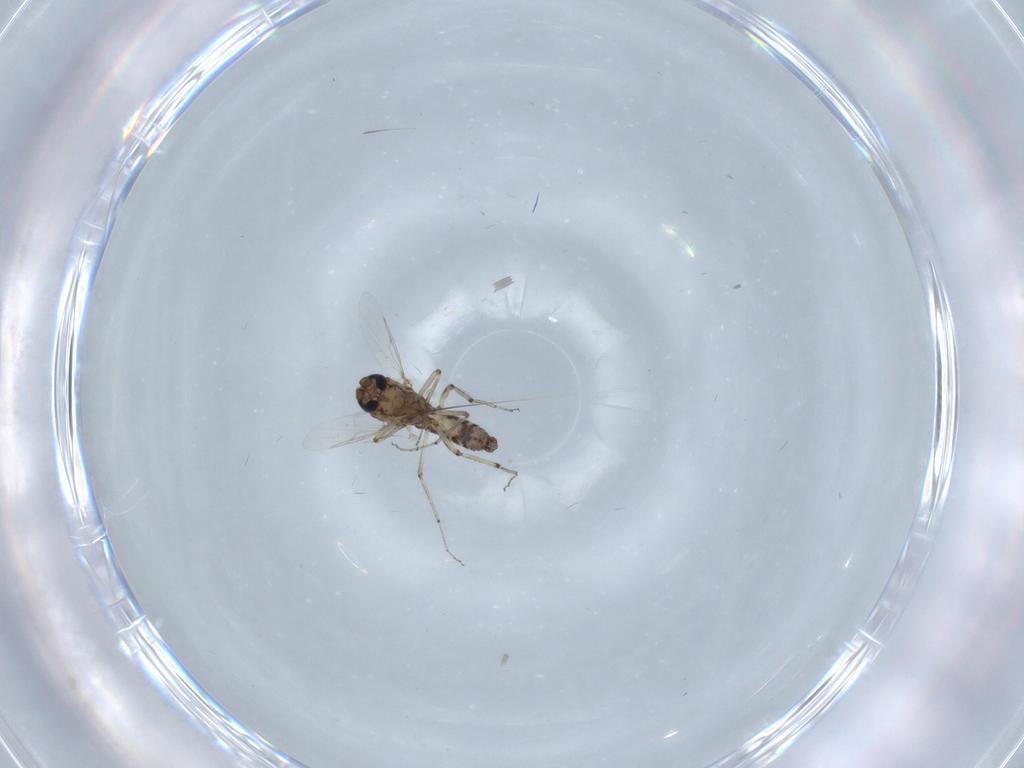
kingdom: Animalia
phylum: Arthropoda
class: Insecta
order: Diptera
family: Ceratopogonidae
